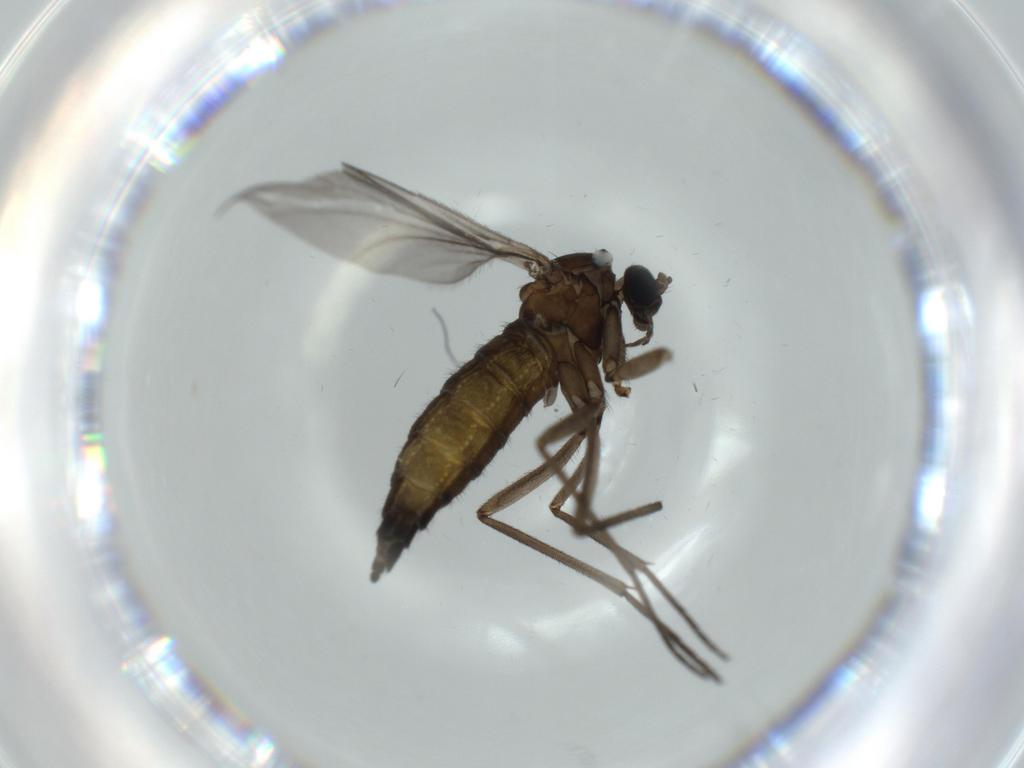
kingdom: Animalia
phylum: Arthropoda
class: Insecta
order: Diptera
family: Sciaridae
